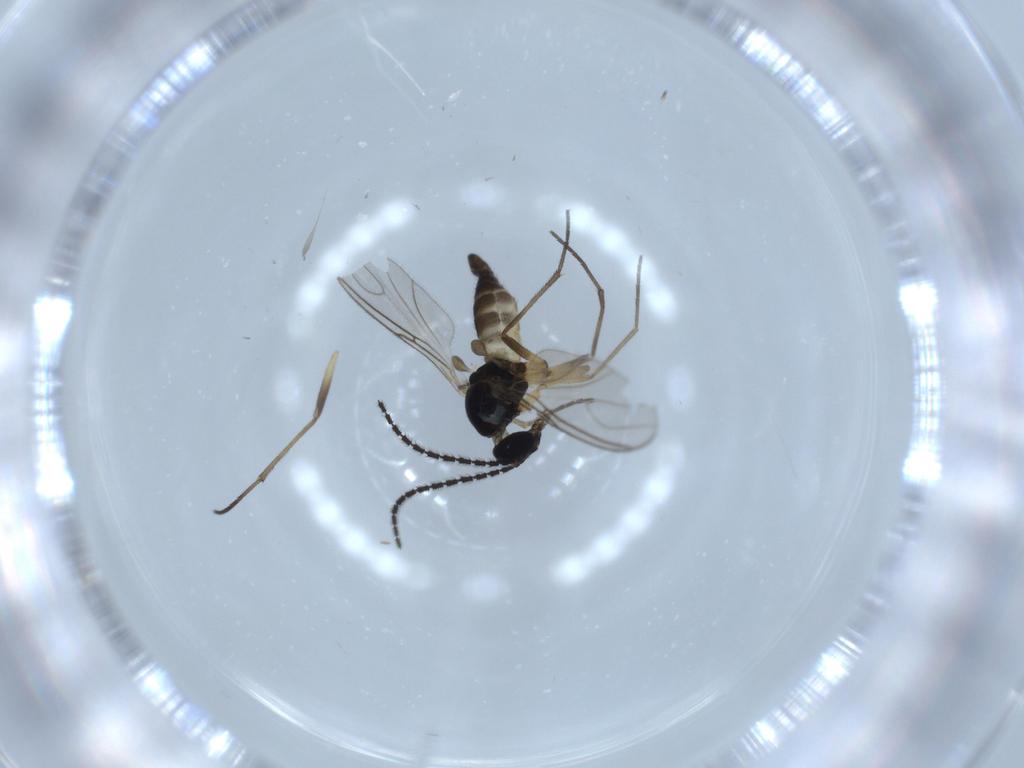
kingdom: Animalia
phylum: Arthropoda
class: Insecta
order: Diptera
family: Sciaridae
